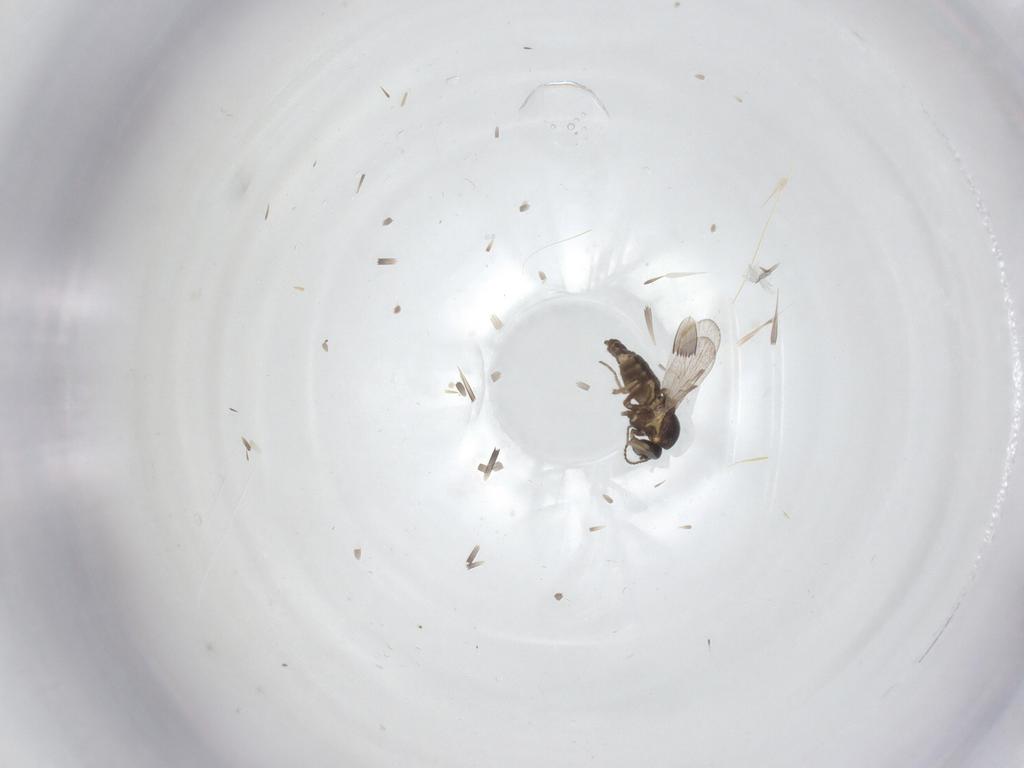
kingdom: Animalia
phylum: Arthropoda
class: Insecta
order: Diptera
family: Ceratopogonidae
